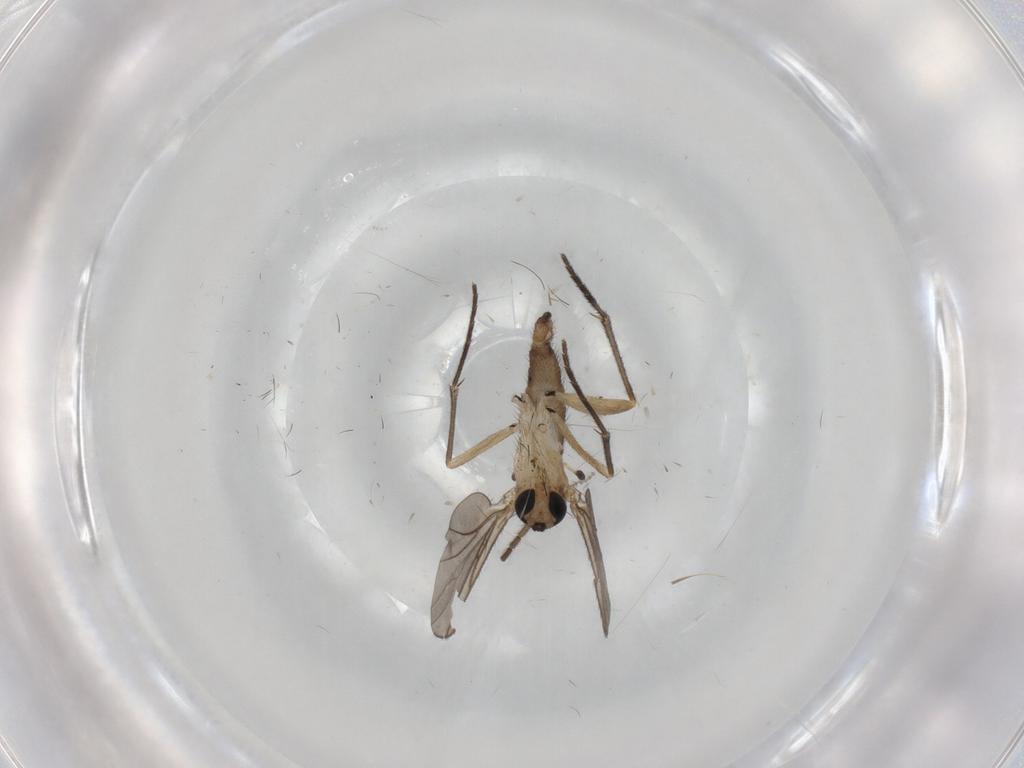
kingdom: Animalia
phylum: Arthropoda
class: Insecta
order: Diptera
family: Sciaridae
